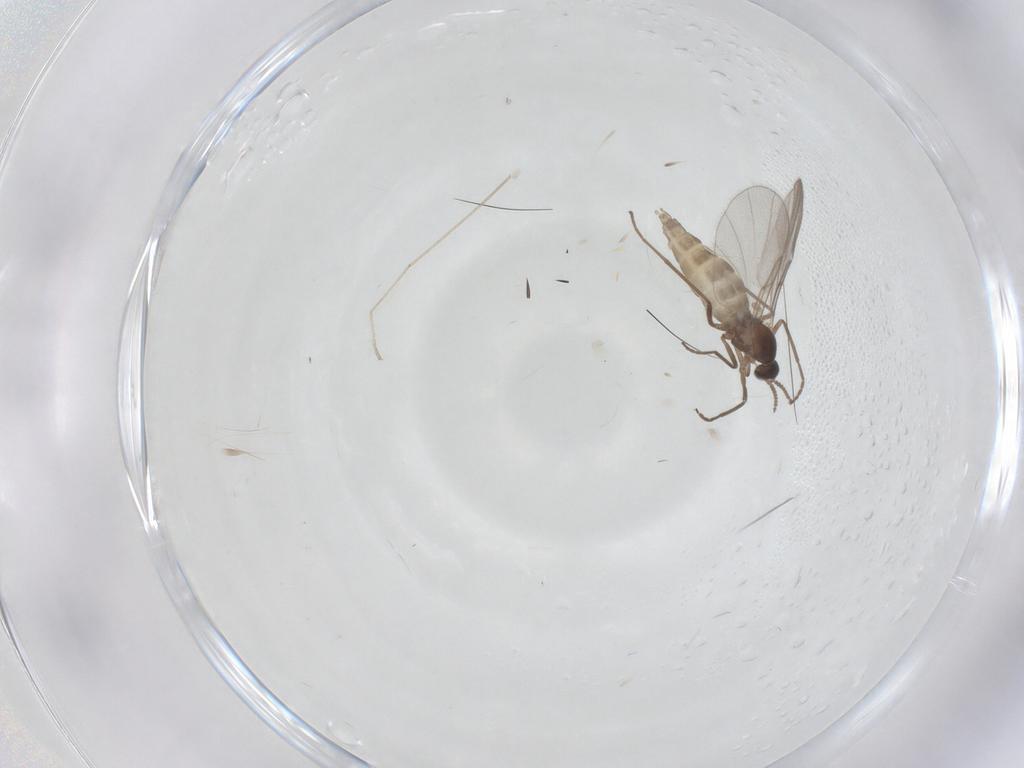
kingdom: Animalia
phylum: Arthropoda
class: Insecta
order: Diptera
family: Cecidomyiidae
